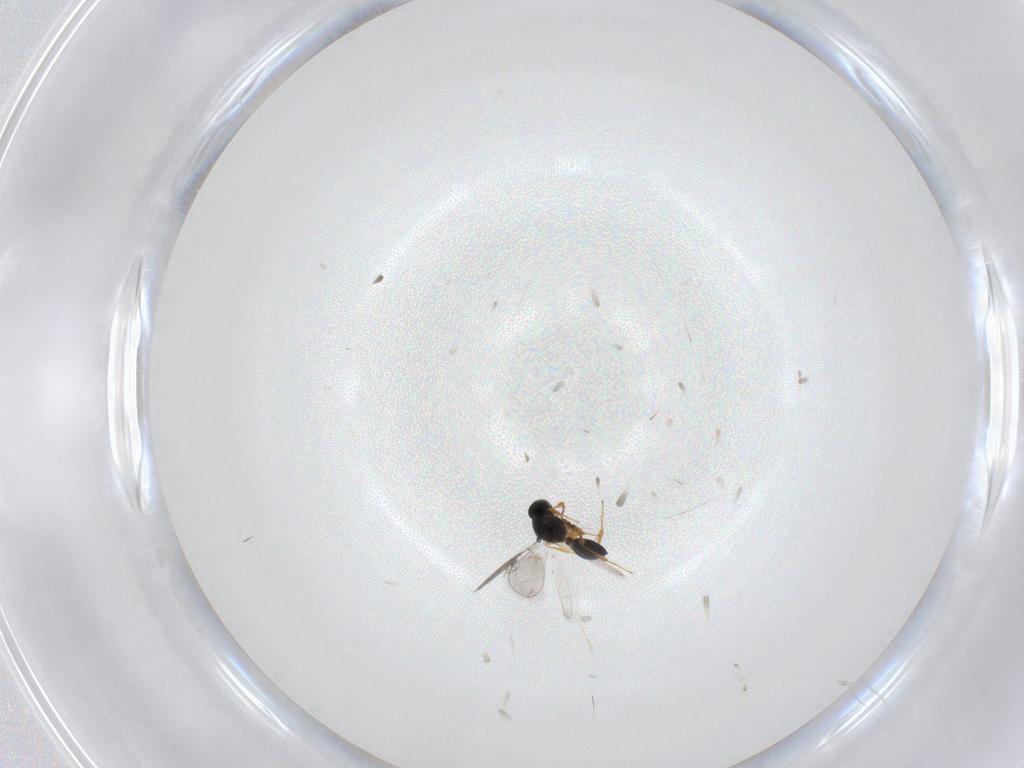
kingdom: Animalia
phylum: Arthropoda
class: Insecta
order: Hymenoptera
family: Platygastridae
